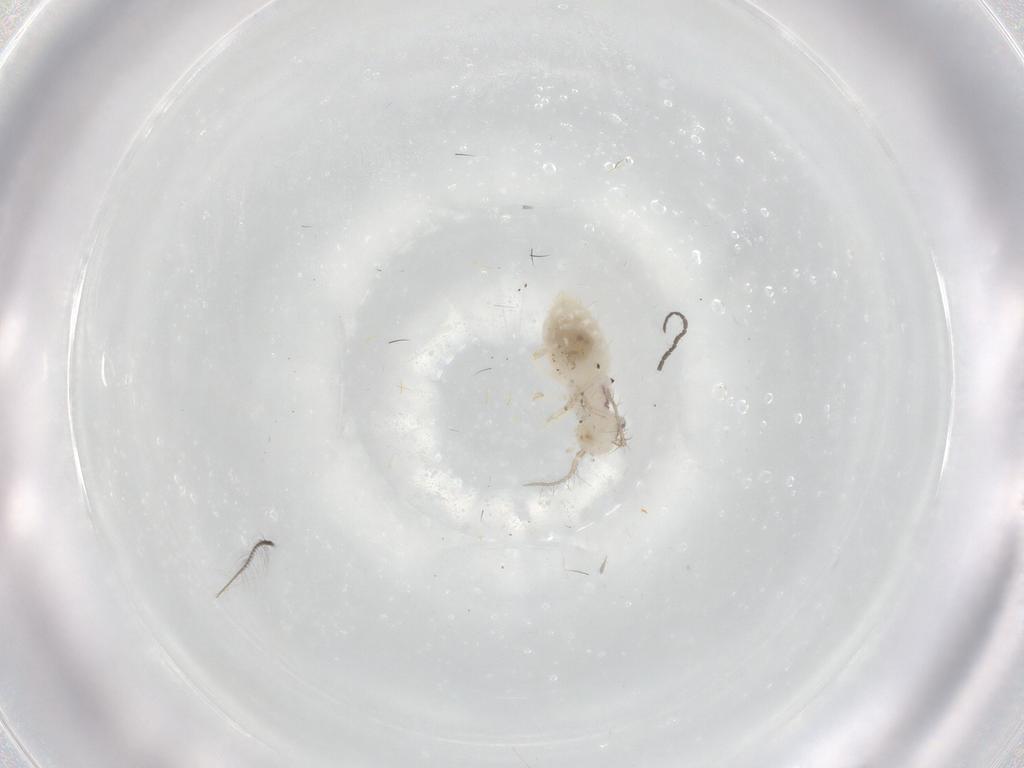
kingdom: Animalia
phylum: Arthropoda
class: Insecta
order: Psocodea
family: Pseudocaeciliidae
